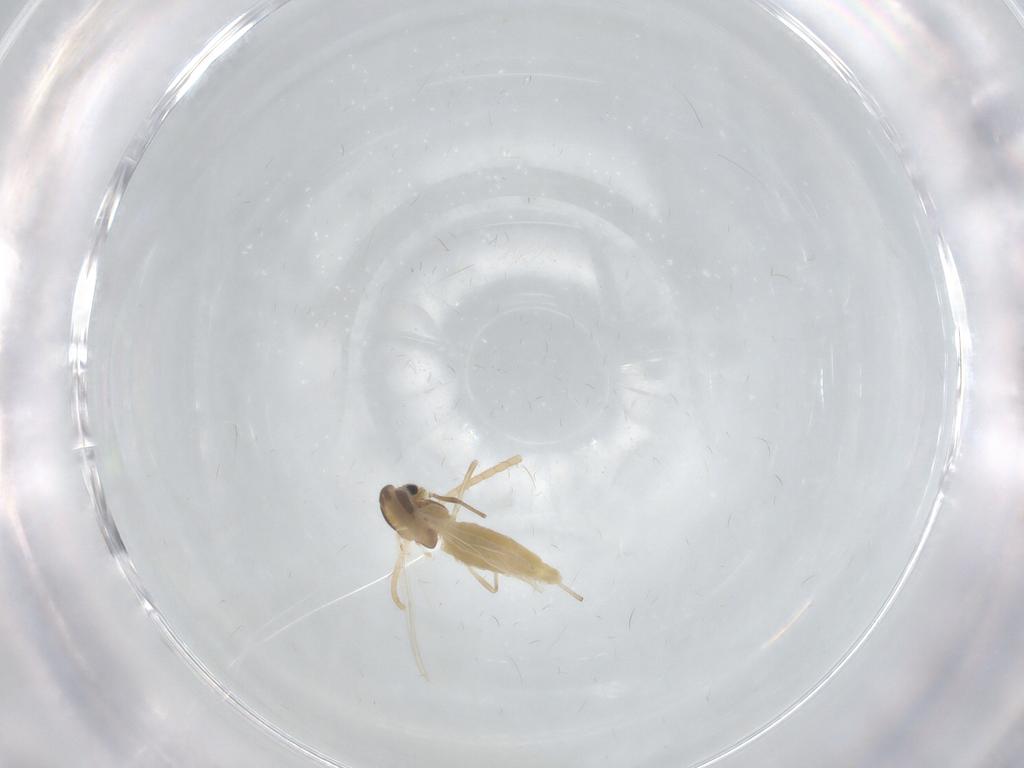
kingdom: Animalia
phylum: Arthropoda
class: Insecta
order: Diptera
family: Chironomidae
